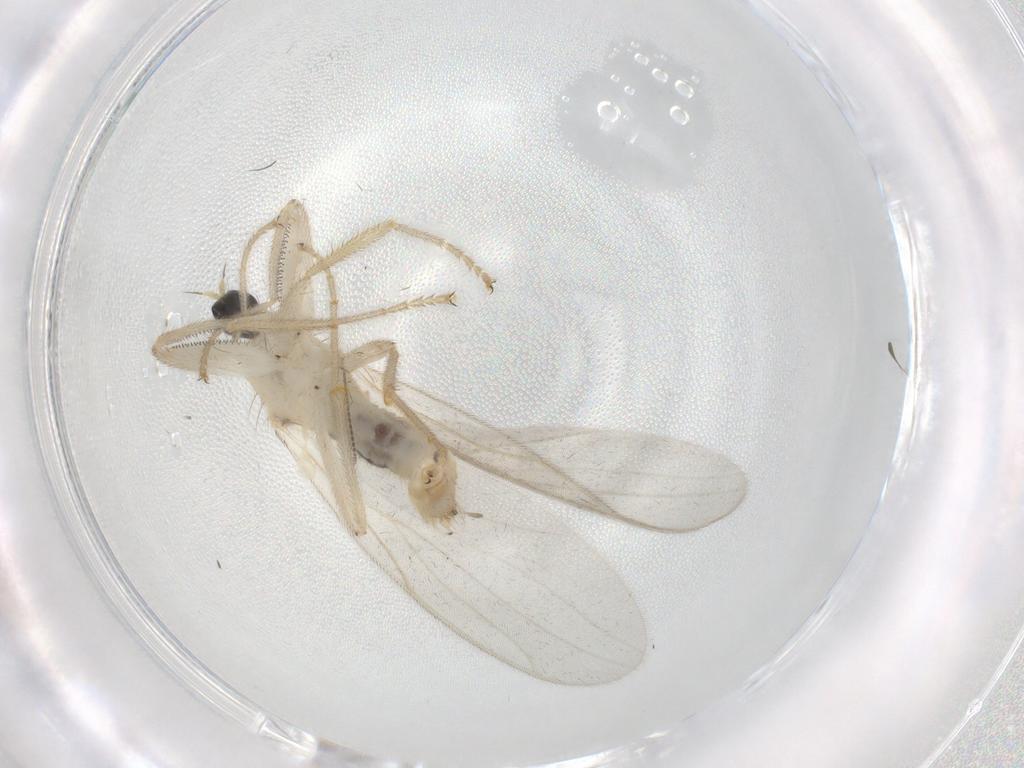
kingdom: Animalia
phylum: Arthropoda
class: Insecta
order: Diptera
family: Hybotidae
